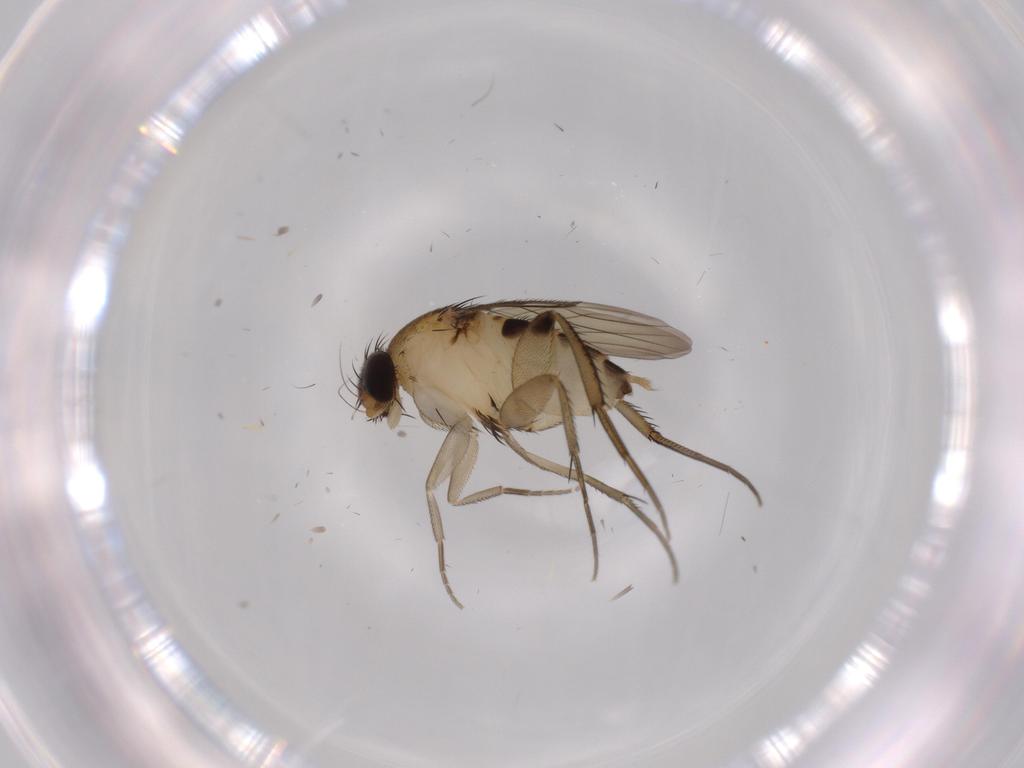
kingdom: Animalia
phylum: Arthropoda
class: Insecta
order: Diptera
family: Phoridae
